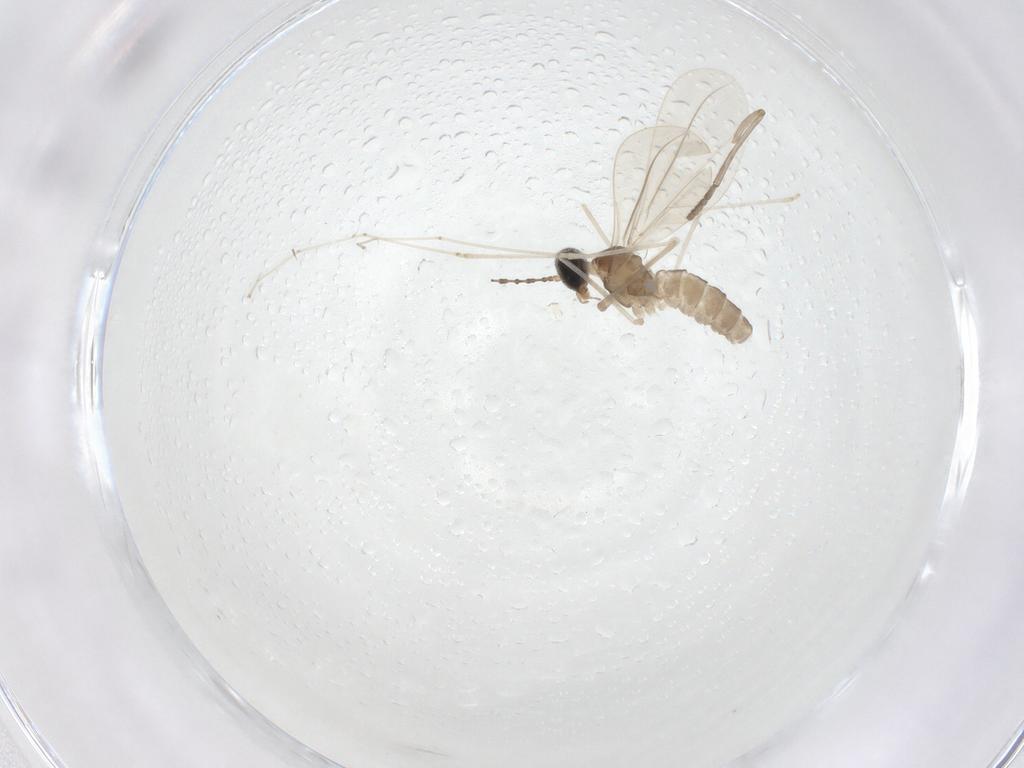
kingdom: Animalia
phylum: Arthropoda
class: Insecta
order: Diptera
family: Cecidomyiidae
